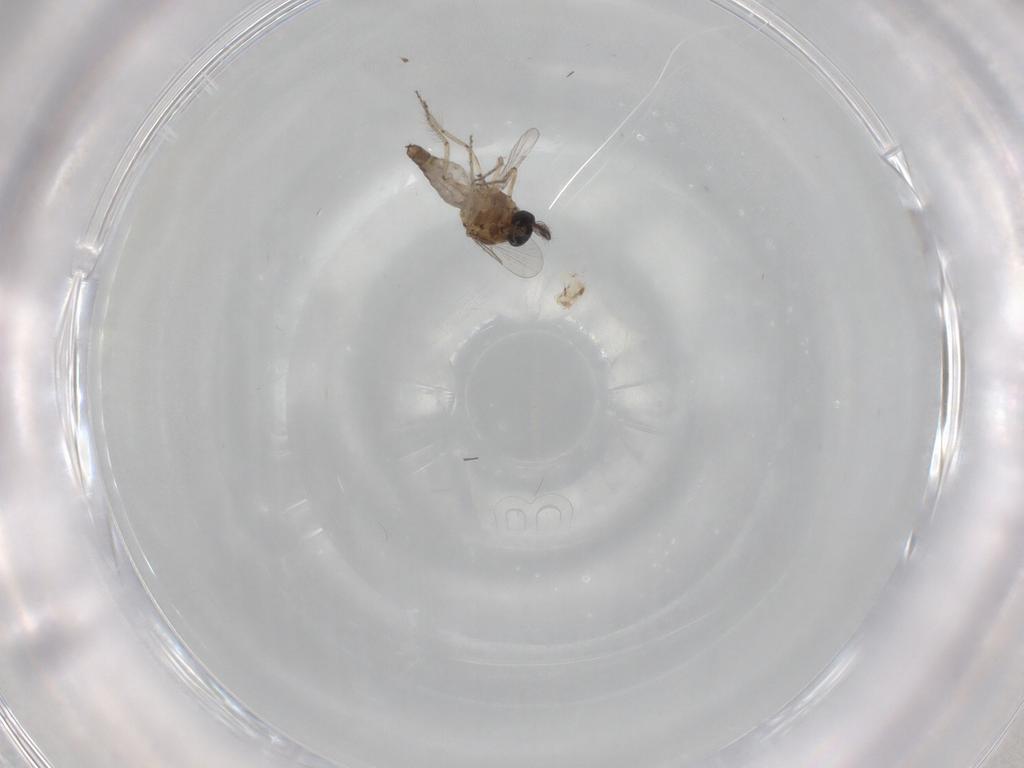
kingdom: Animalia
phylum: Arthropoda
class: Insecta
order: Diptera
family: Ceratopogonidae
